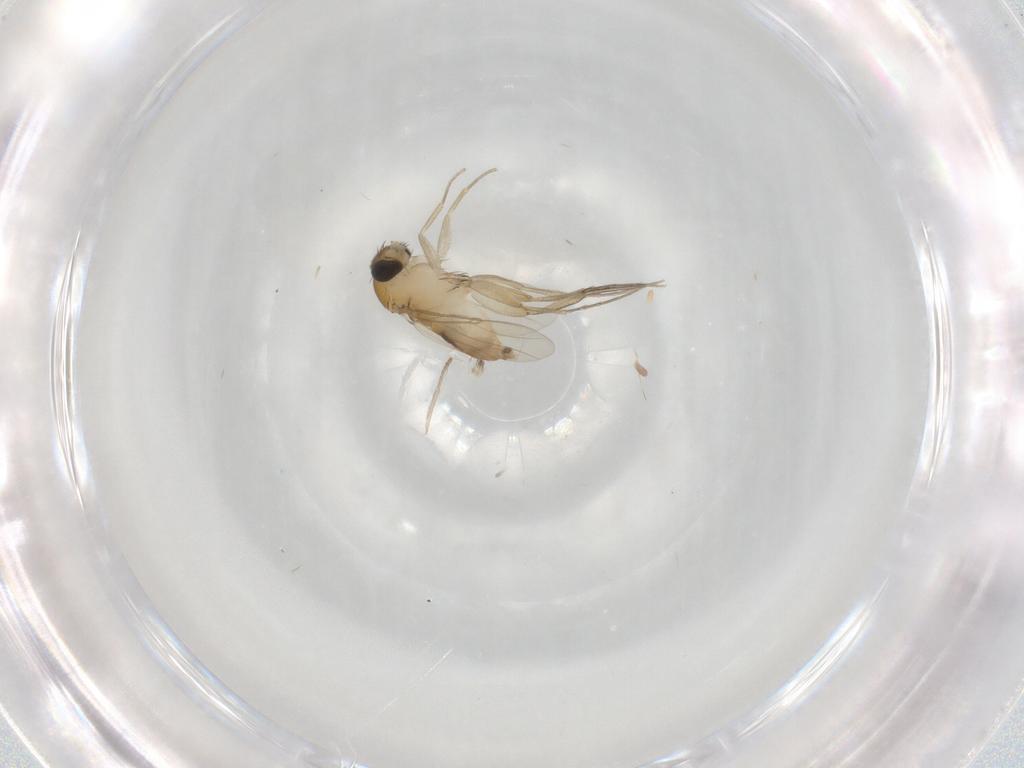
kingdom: Animalia
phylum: Arthropoda
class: Insecta
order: Diptera
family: Phoridae
